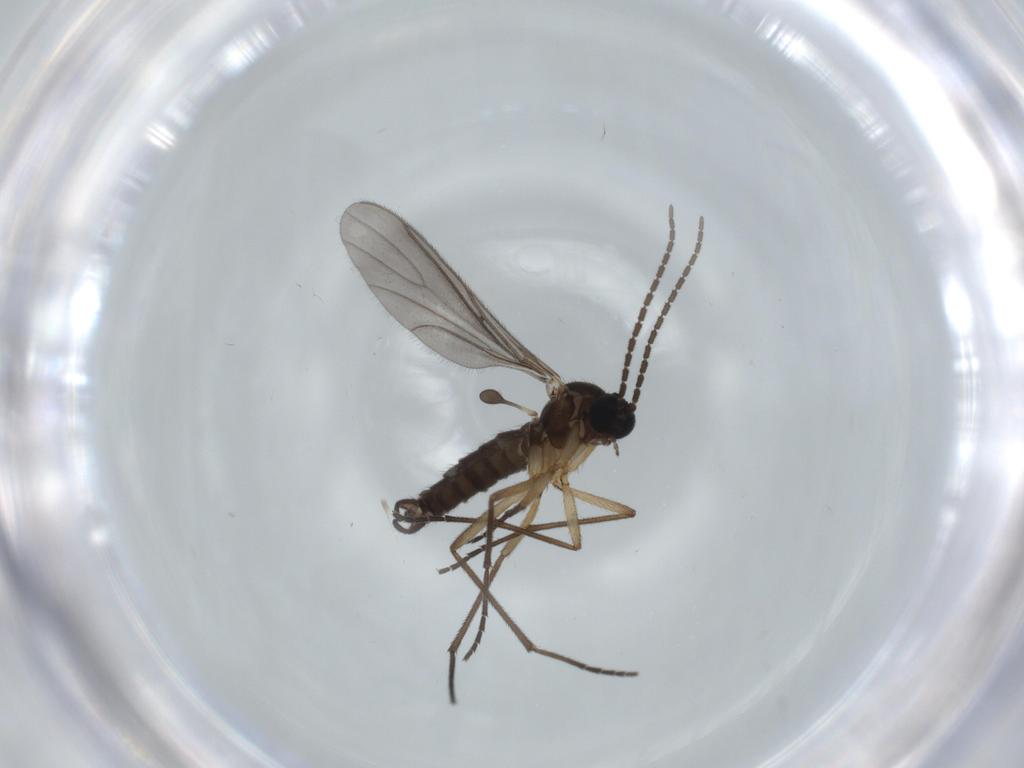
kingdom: Animalia
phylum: Arthropoda
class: Insecta
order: Diptera
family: Sciaridae
